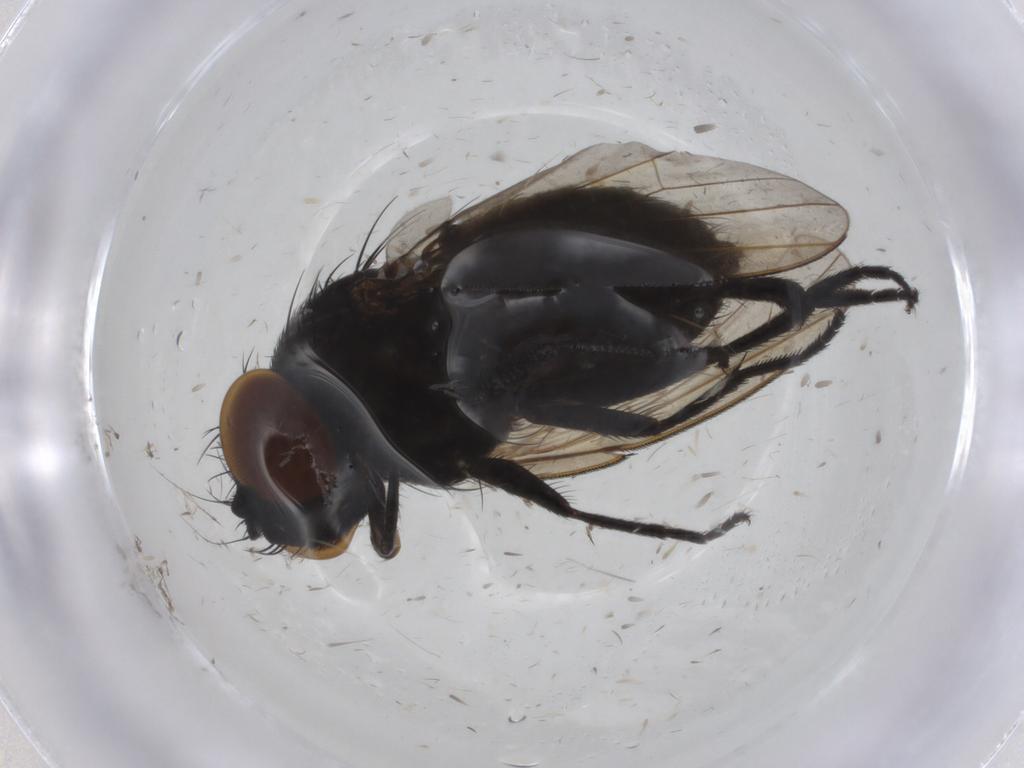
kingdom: Animalia
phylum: Arthropoda
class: Insecta
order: Diptera
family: Milichiidae
